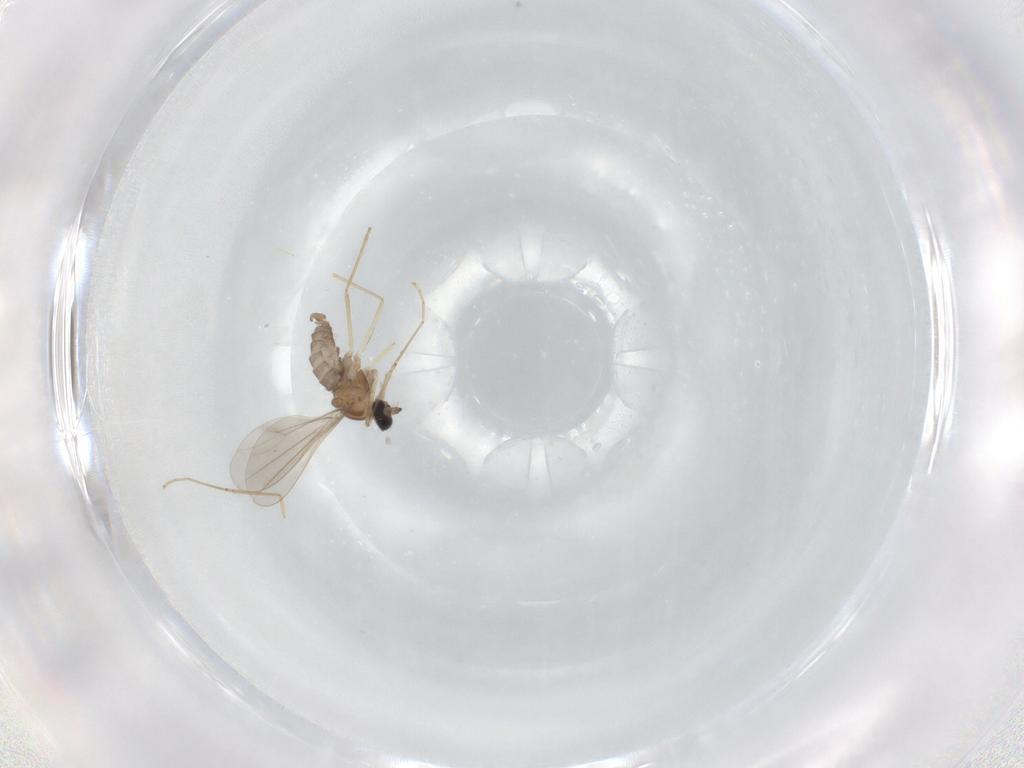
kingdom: Animalia
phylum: Arthropoda
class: Insecta
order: Diptera
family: Cecidomyiidae
